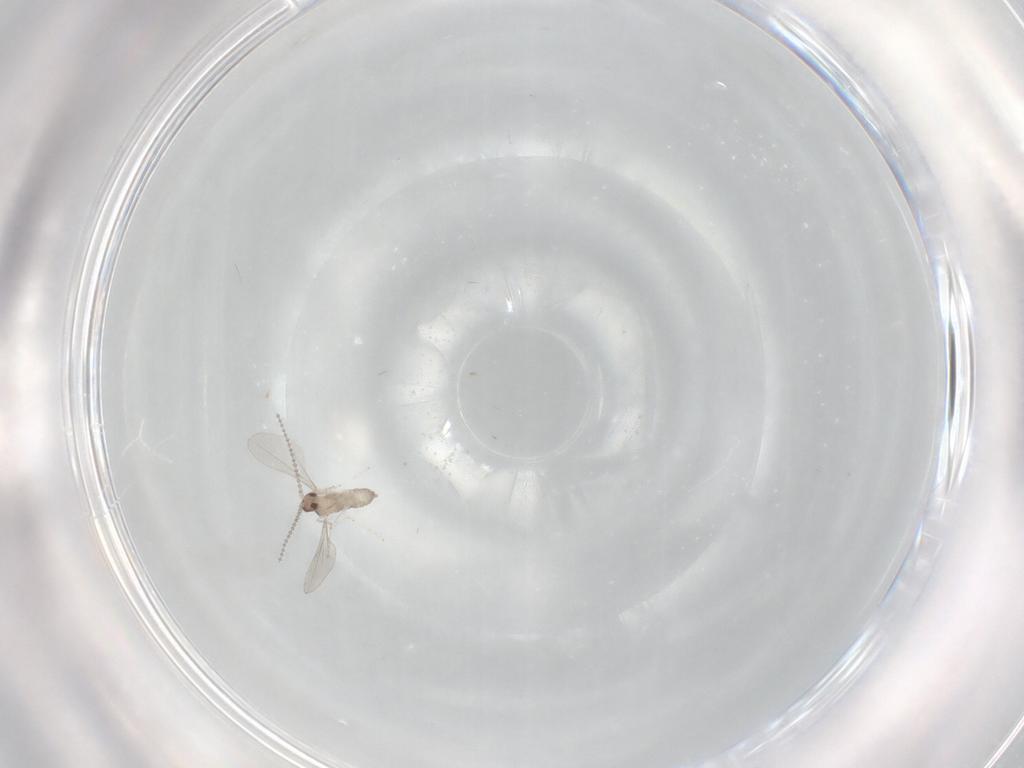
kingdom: Animalia
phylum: Arthropoda
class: Insecta
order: Diptera
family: Cecidomyiidae
